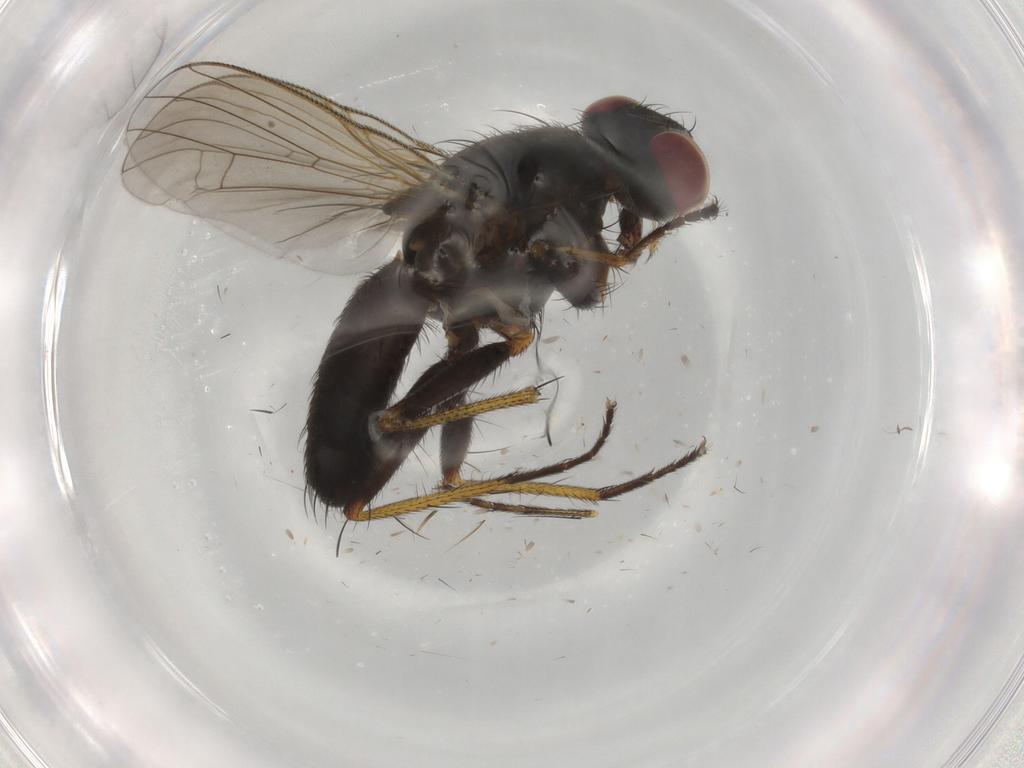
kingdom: Animalia
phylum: Arthropoda
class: Insecta
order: Diptera
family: Muscidae
